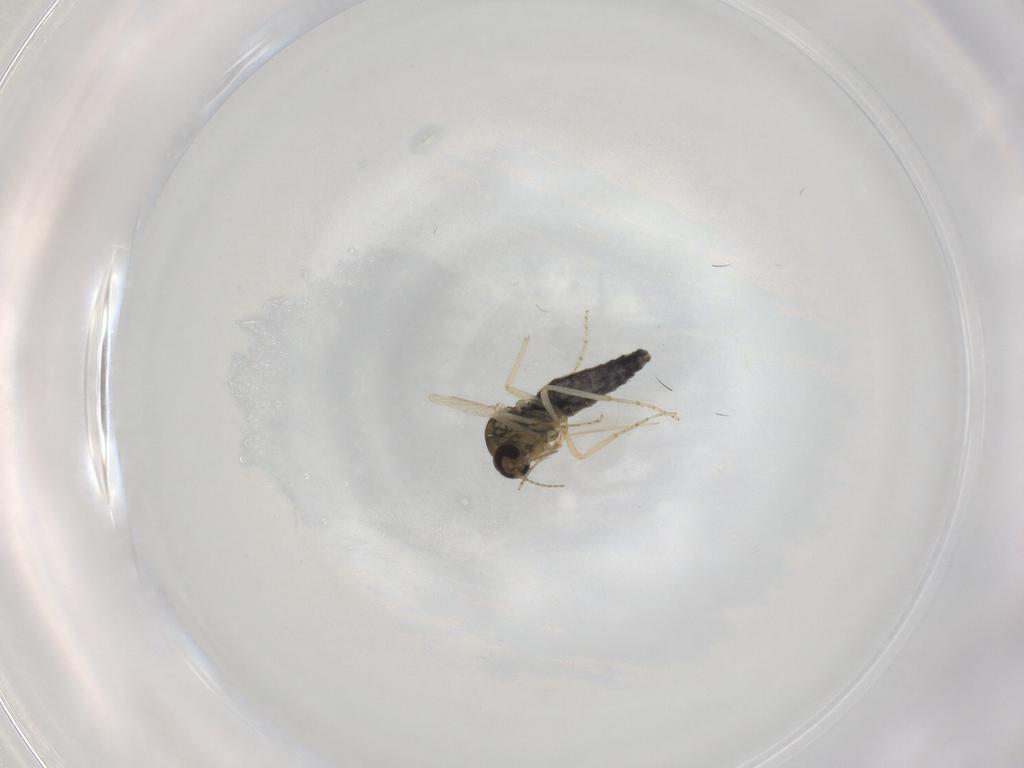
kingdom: Animalia
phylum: Arthropoda
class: Insecta
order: Diptera
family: Ceratopogonidae
